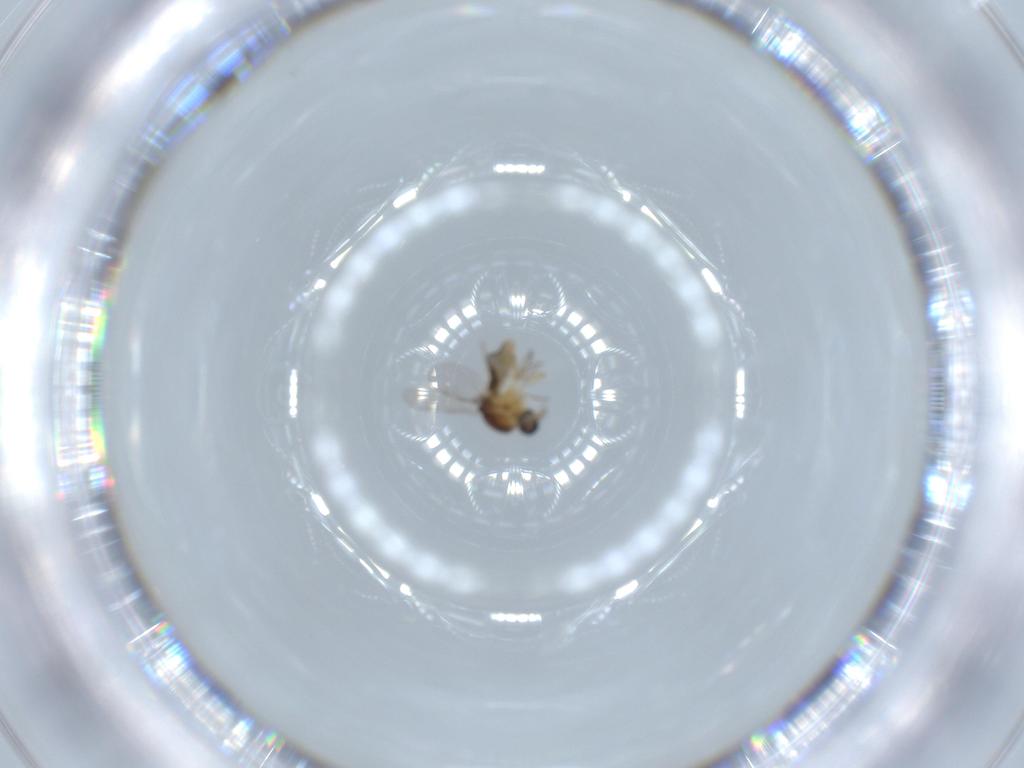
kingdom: Animalia
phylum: Arthropoda
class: Insecta
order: Diptera
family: Ceratopogonidae
